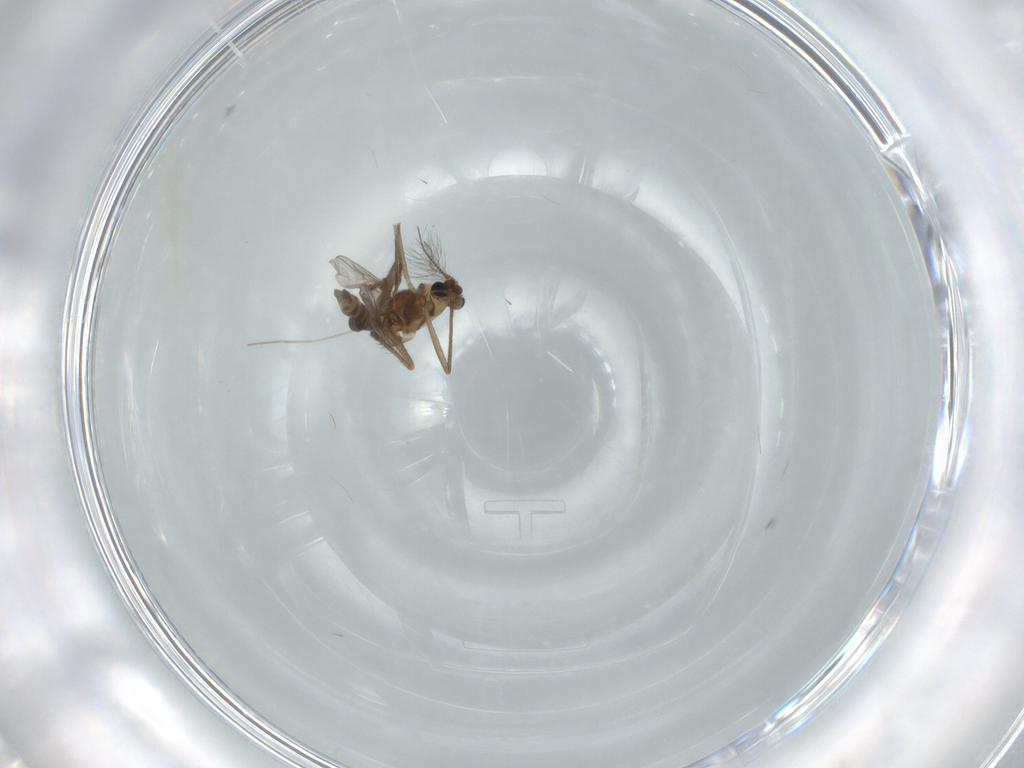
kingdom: Animalia
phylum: Arthropoda
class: Insecta
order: Diptera
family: Chironomidae
